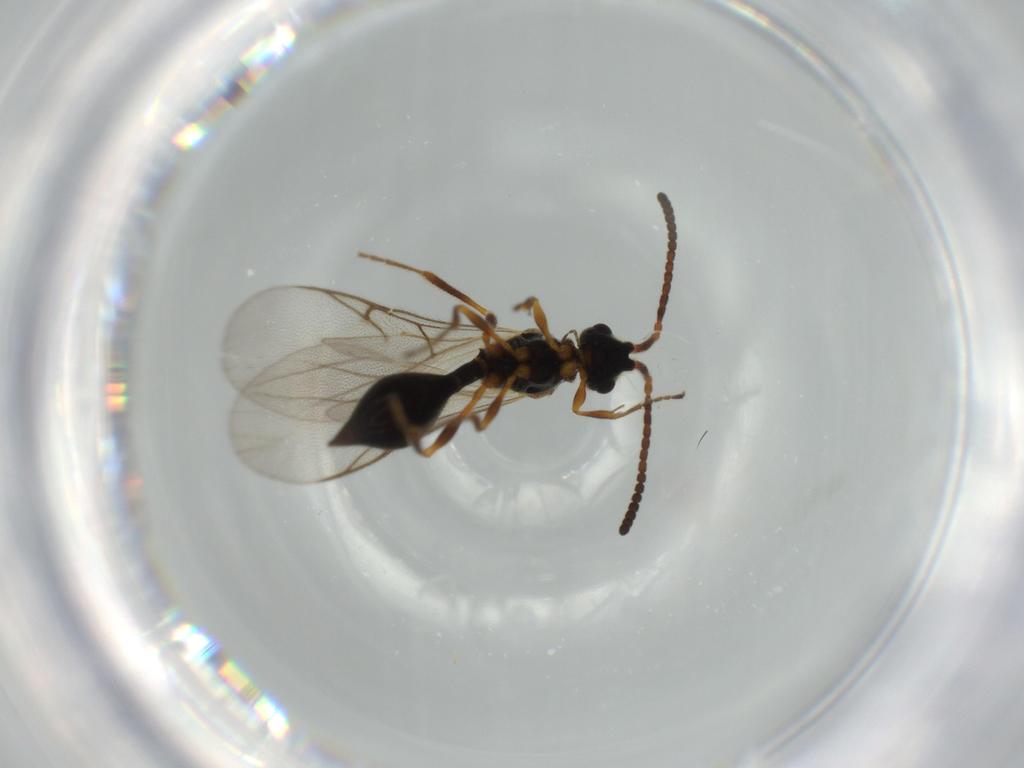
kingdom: Animalia
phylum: Arthropoda
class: Insecta
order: Hymenoptera
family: Diapriidae
